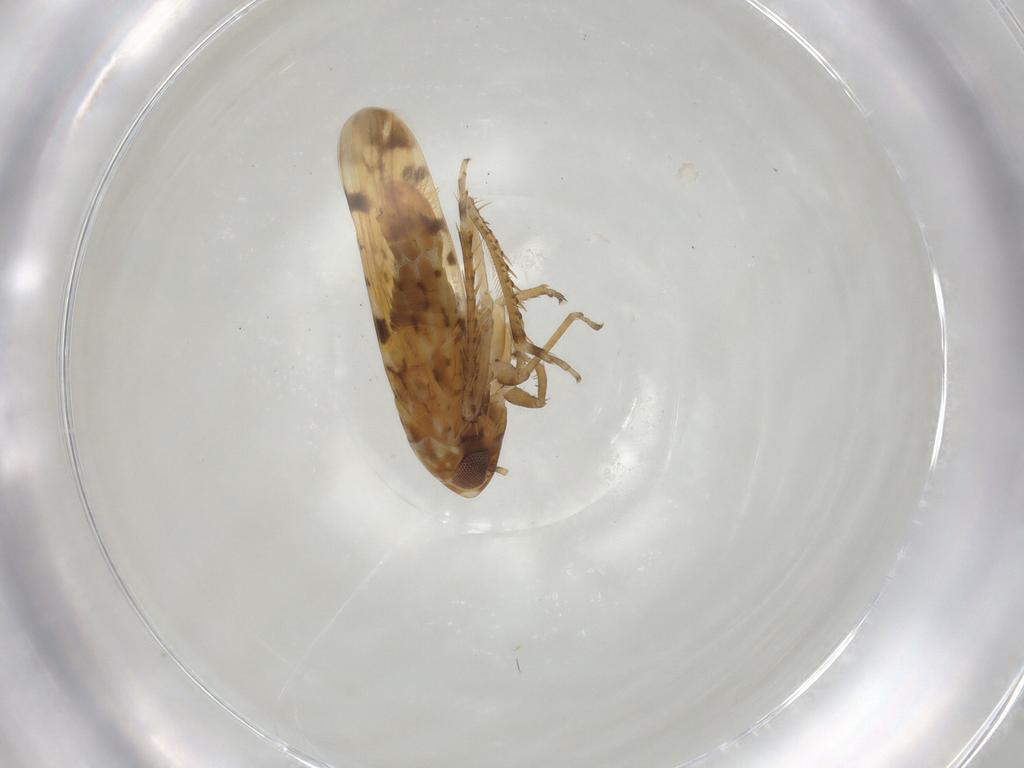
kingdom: Animalia
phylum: Arthropoda
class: Insecta
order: Hemiptera
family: Cicadellidae
